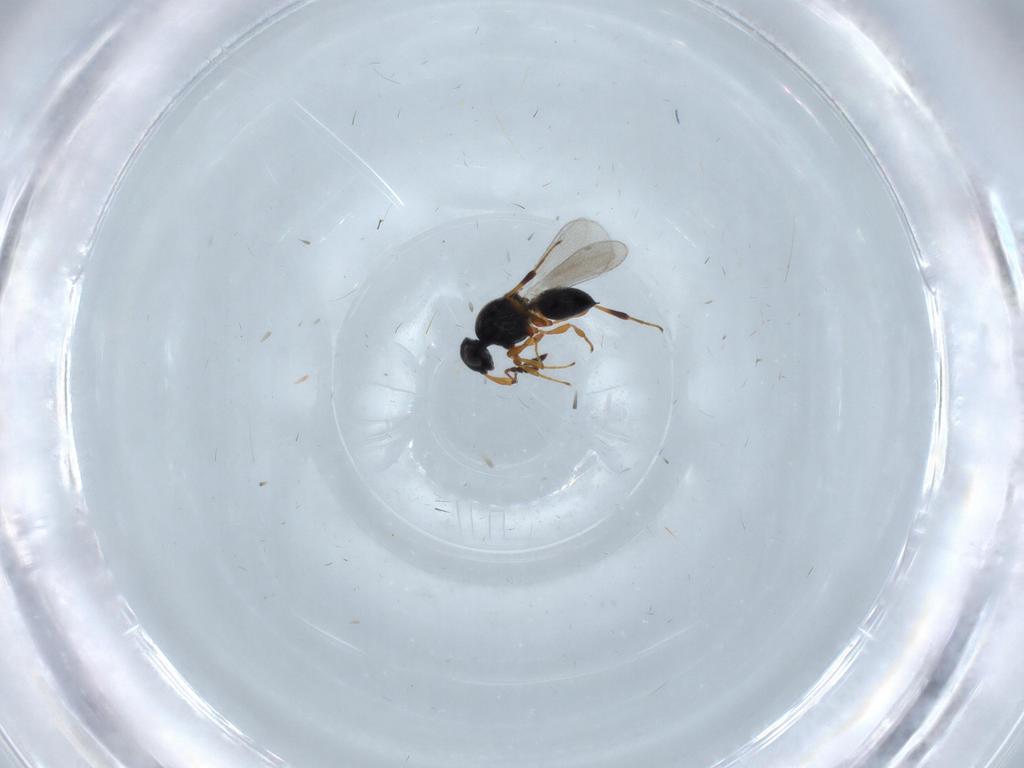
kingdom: Animalia
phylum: Arthropoda
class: Insecta
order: Hymenoptera
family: Platygastridae
